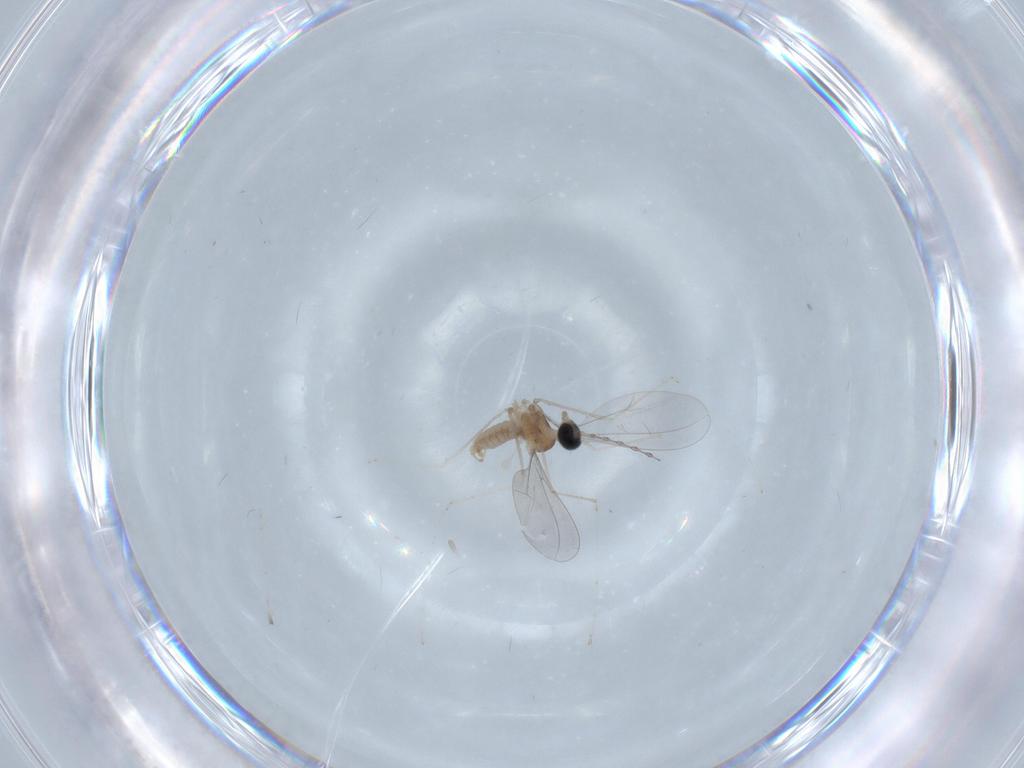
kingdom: Animalia
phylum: Arthropoda
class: Insecta
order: Diptera
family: Cecidomyiidae
